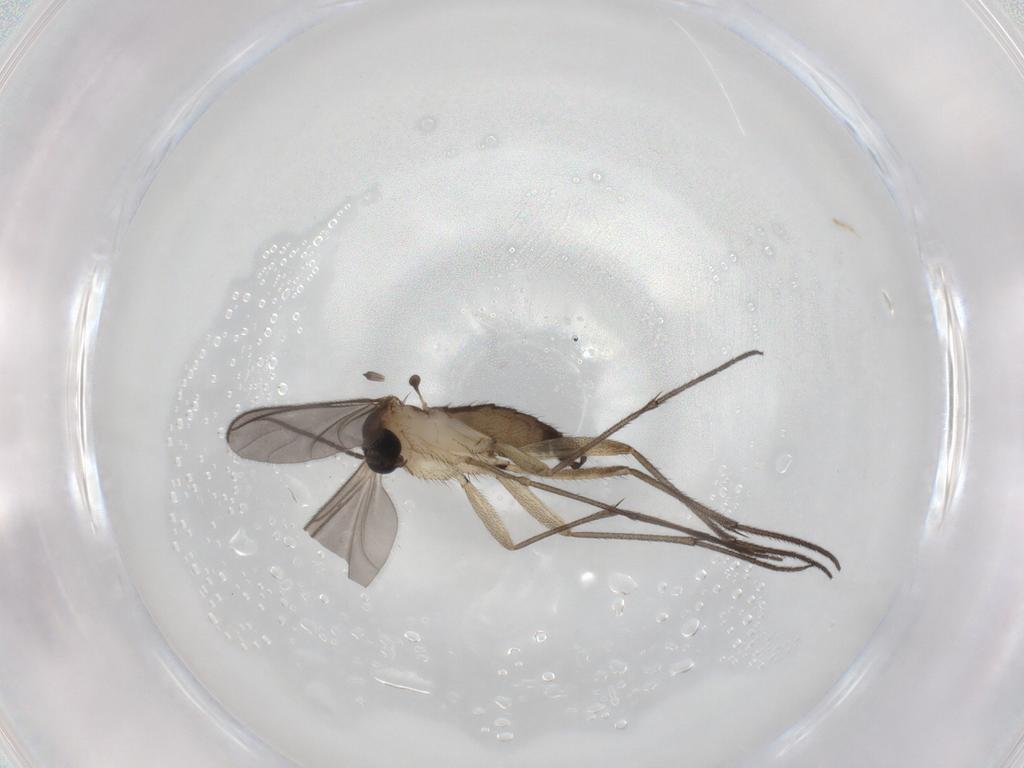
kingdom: Animalia
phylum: Arthropoda
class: Insecta
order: Diptera
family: Sciaridae
